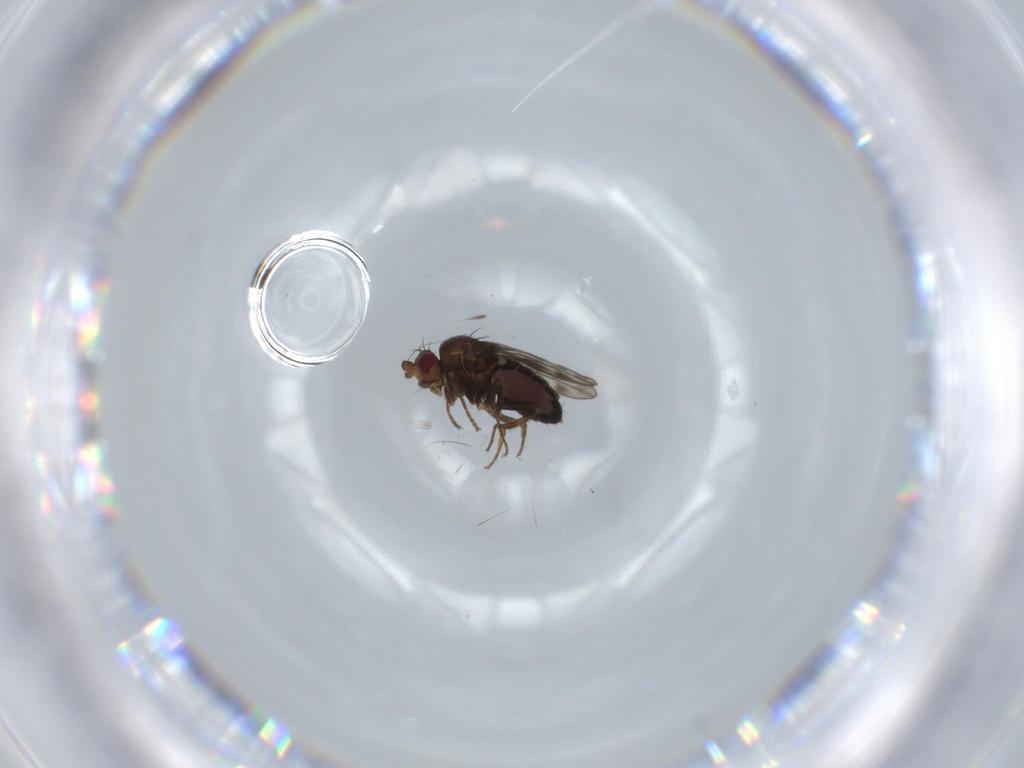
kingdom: Animalia
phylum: Arthropoda
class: Insecta
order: Diptera
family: Sphaeroceridae
